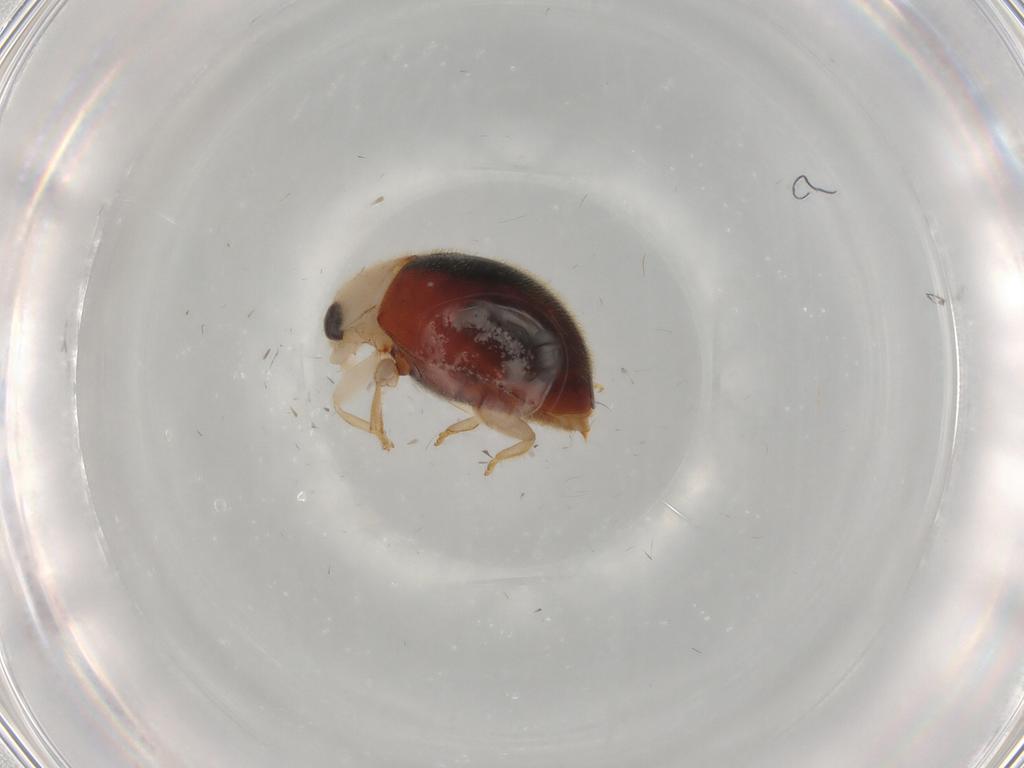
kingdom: Animalia
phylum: Arthropoda
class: Insecta
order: Coleoptera
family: Coccinellidae
